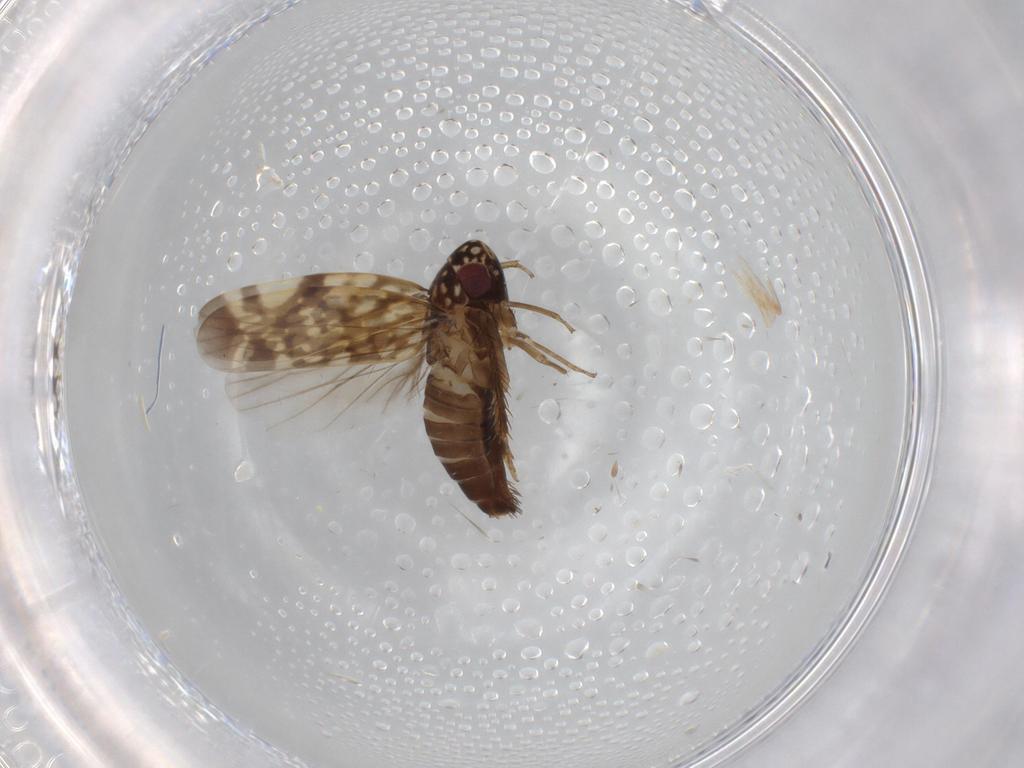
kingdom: Animalia
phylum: Arthropoda
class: Insecta
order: Hemiptera
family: Cicadellidae
